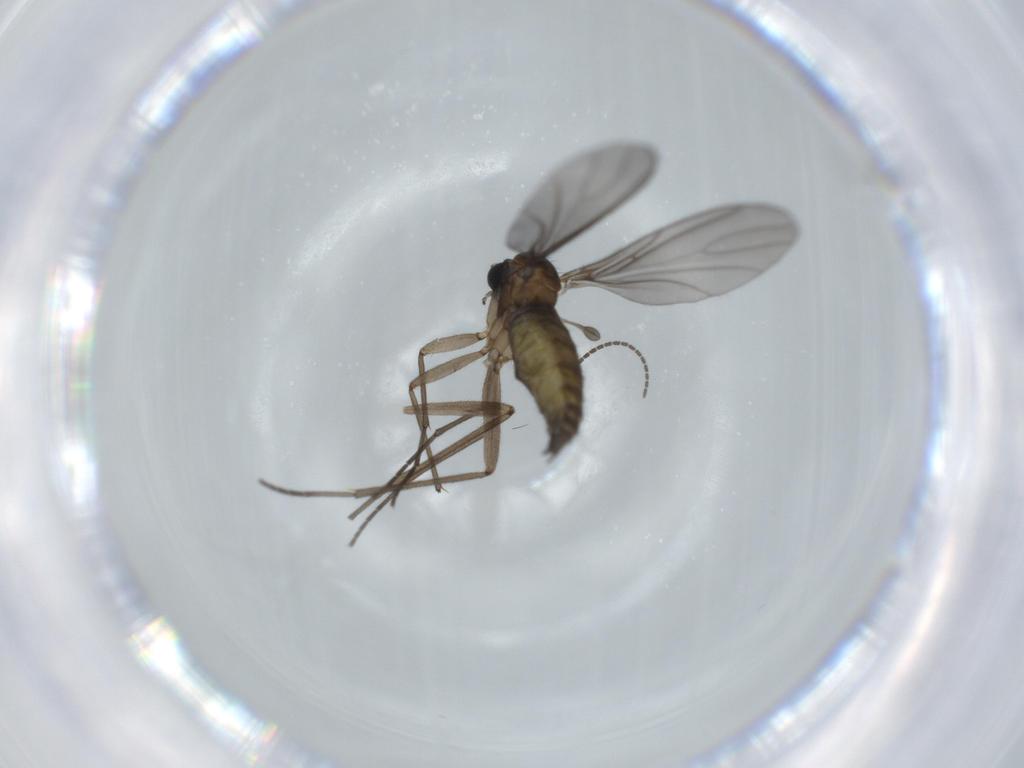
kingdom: Animalia
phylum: Arthropoda
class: Insecta
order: Diptera
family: Sciaridae
